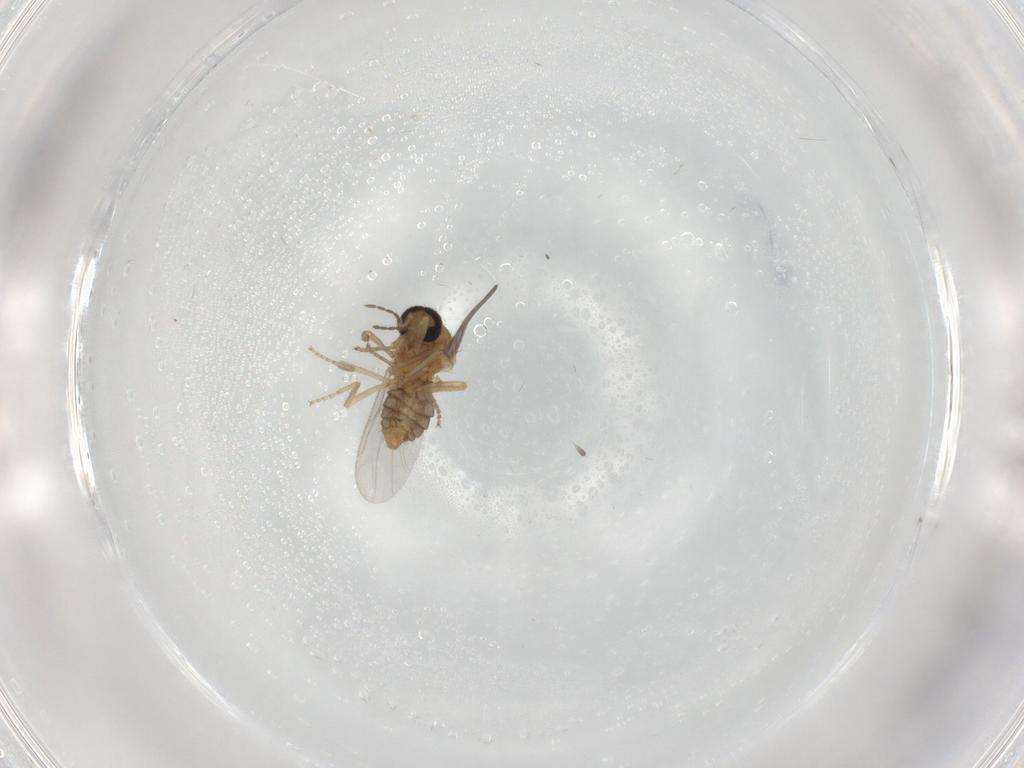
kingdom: Animalia
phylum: Arthropoda
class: Insecta
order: Diptera
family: Ceratopogonidae
